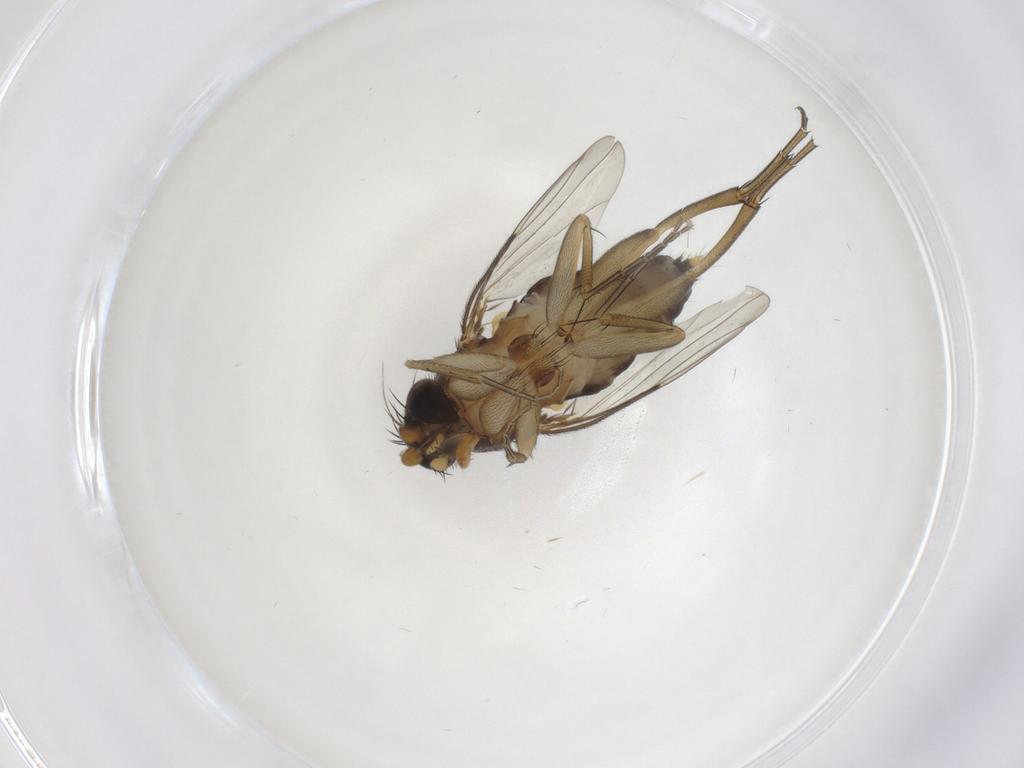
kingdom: Animalia
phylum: Arthropoda
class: Insecta
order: Diptera
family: Phoridae
